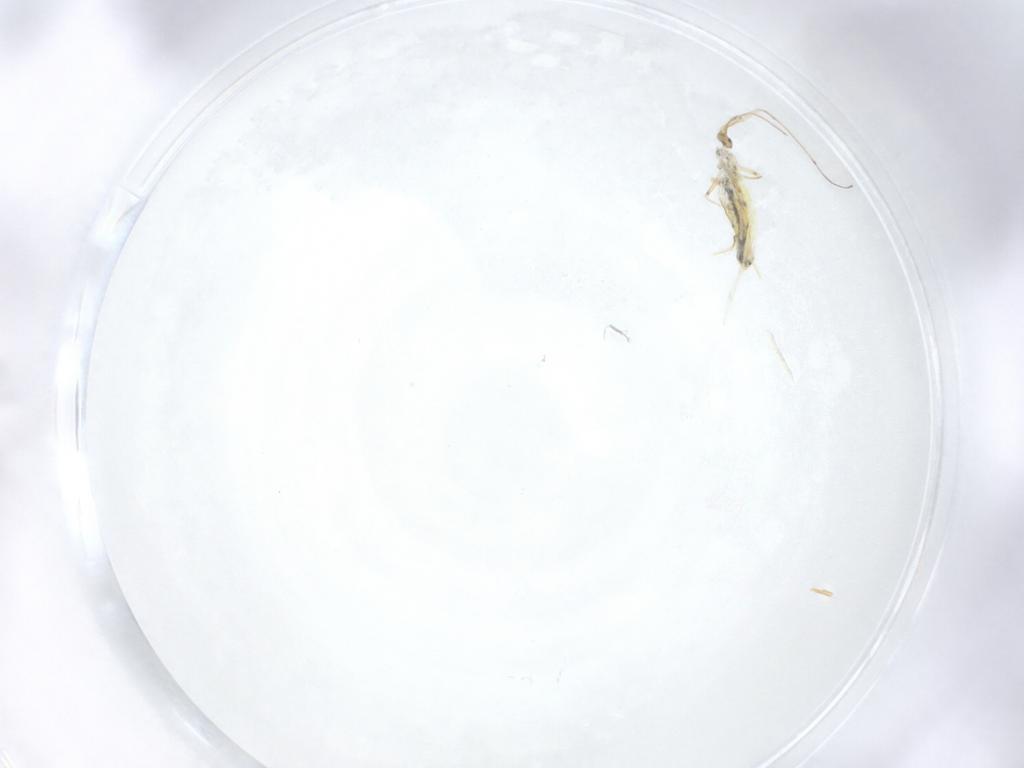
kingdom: Animalia
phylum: Arthropoda
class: Collembola
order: Entomobryomorpha
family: Entomobryidae
